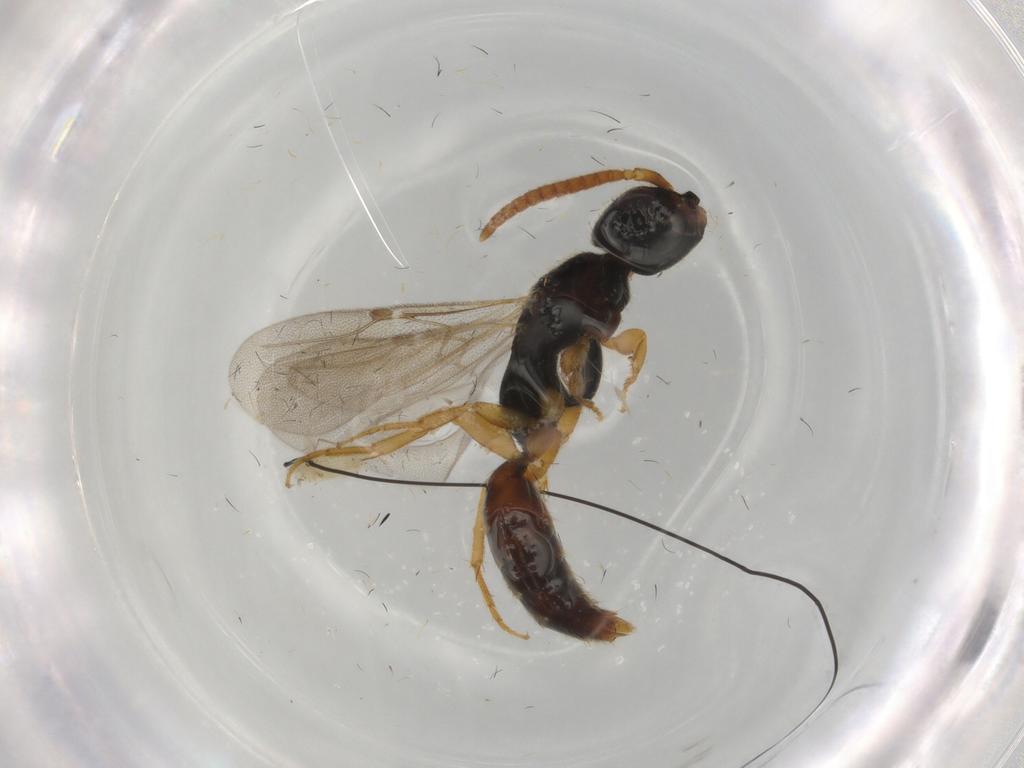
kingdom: Animalia
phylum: Arthropoda
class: Insecta
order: Hymenoptera
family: Bethylidae
